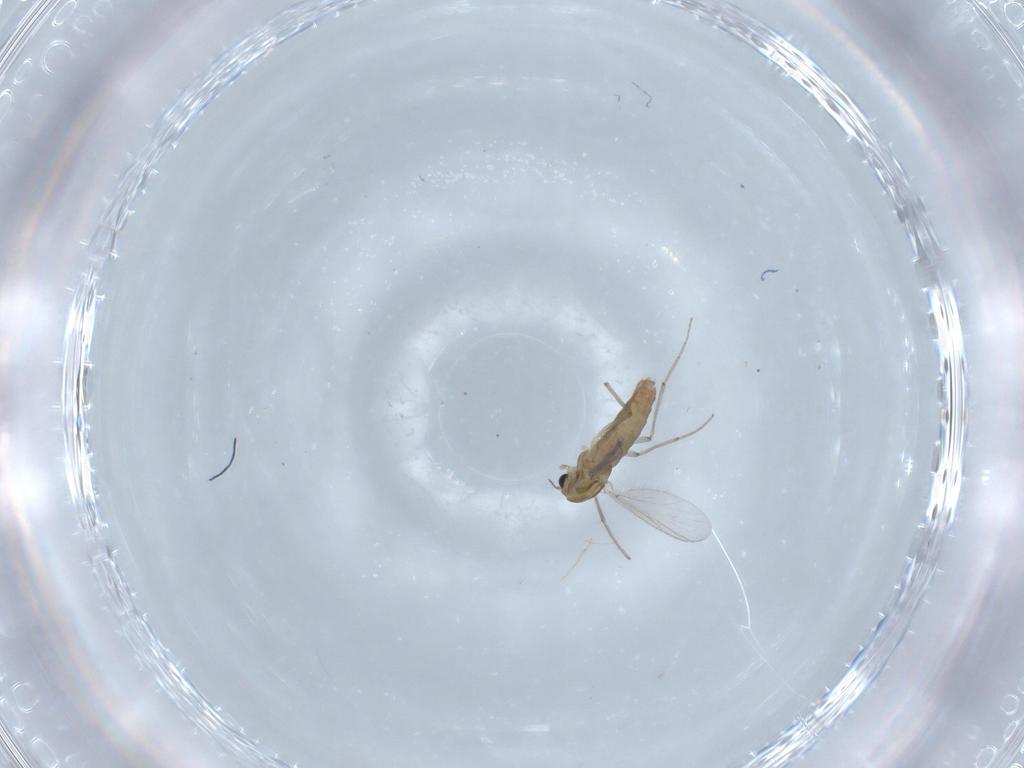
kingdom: Animalia
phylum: Arthropoda
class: Insecta
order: Diptera
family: Chironomidae
